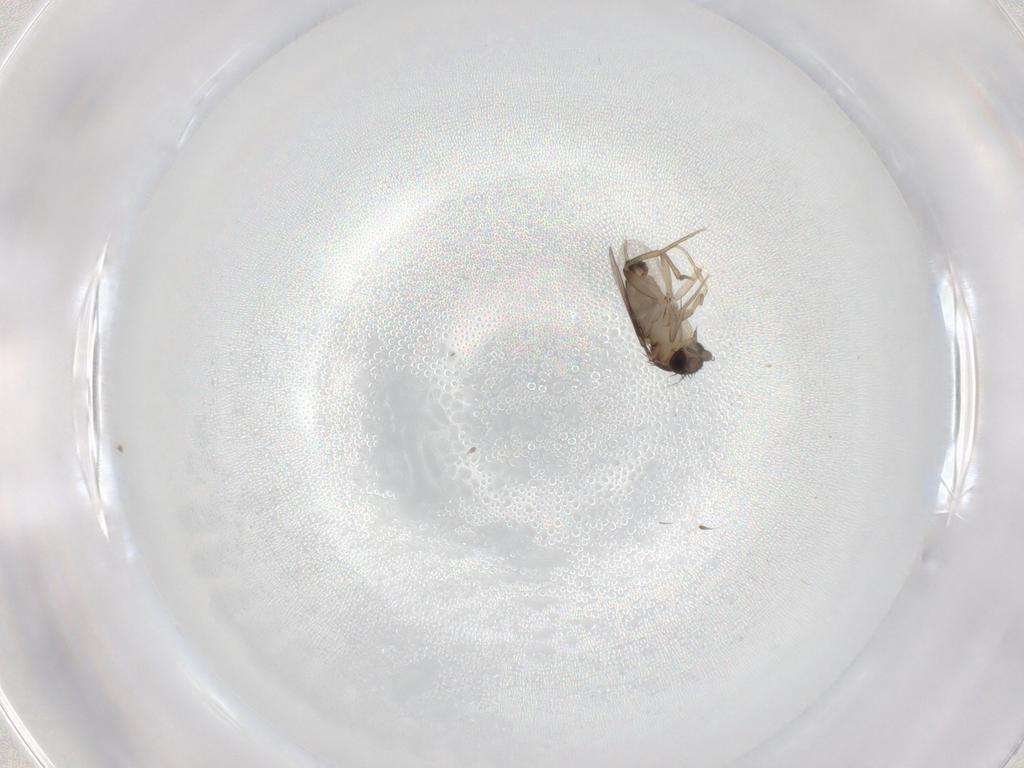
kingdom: Animalia
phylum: Arthropoda
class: Insecta
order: Diptera
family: Phoridae
